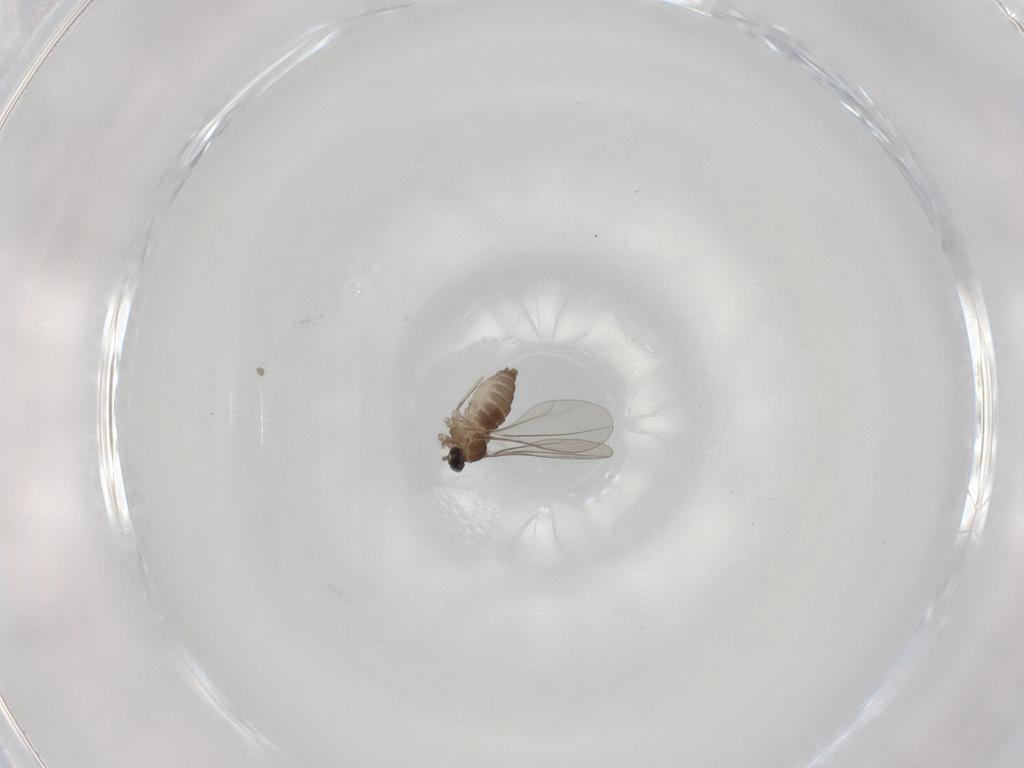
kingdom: Animalia
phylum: Arthropoda
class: Insecta
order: Diptera
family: Cecidomyiidae
